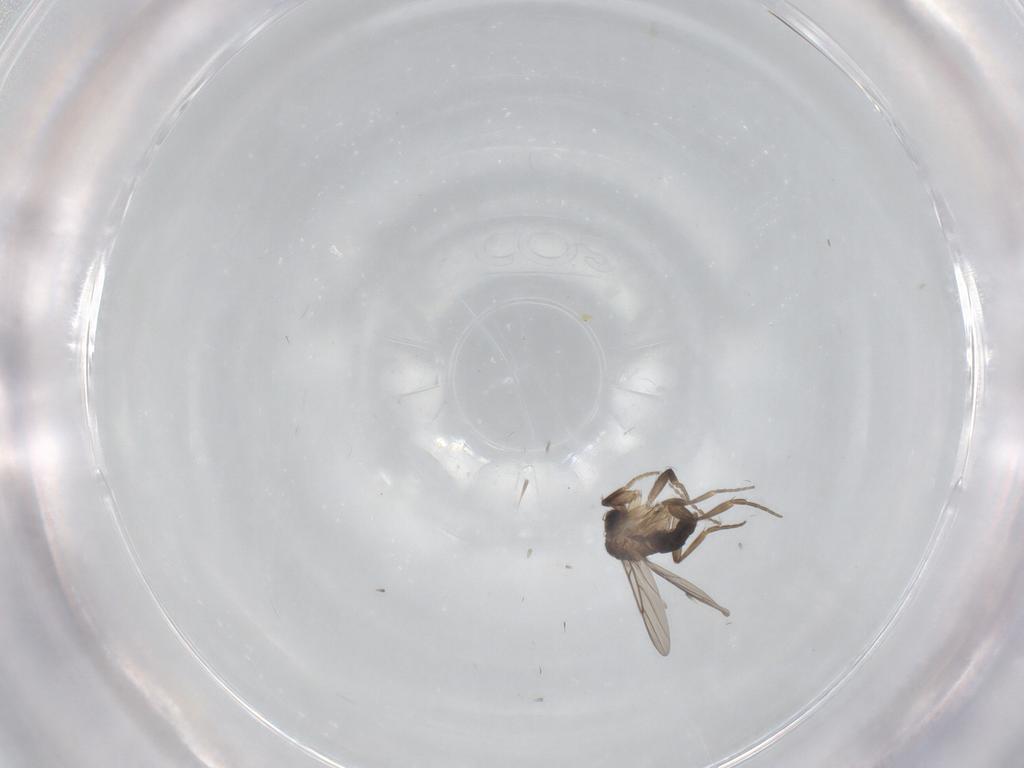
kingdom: Animalia
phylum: Arthropoda
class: Insecta
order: Diptera
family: Phoridae
